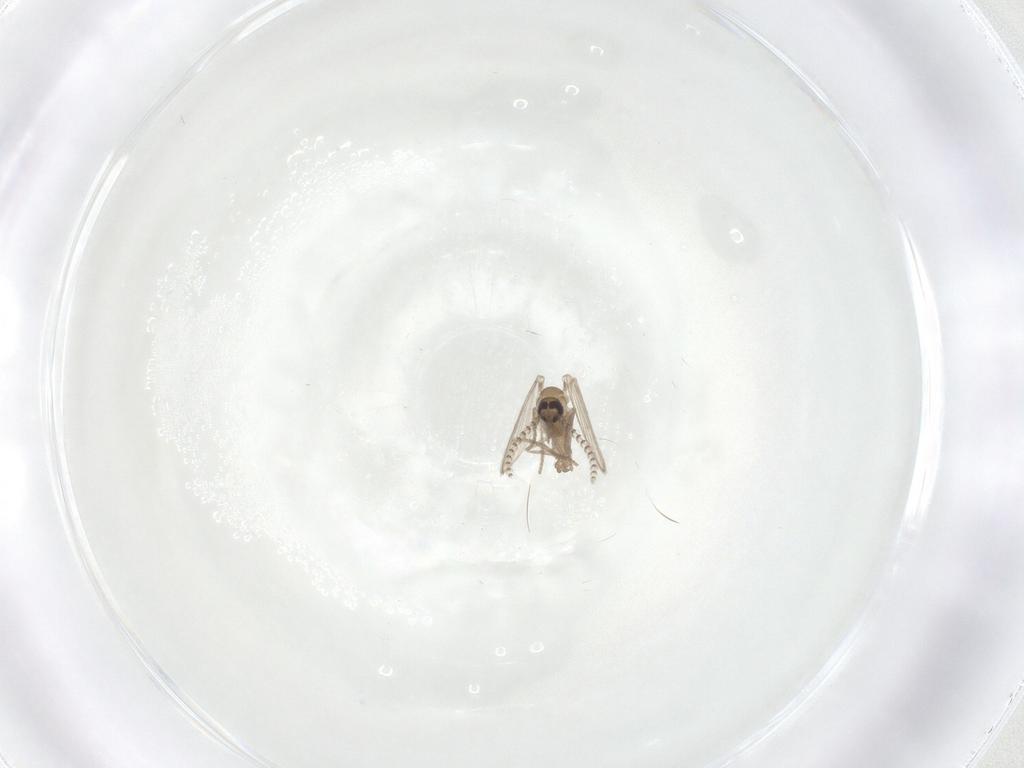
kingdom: Animalia
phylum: Arthropoda
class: Insecta
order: Diptera
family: Psychodidae
